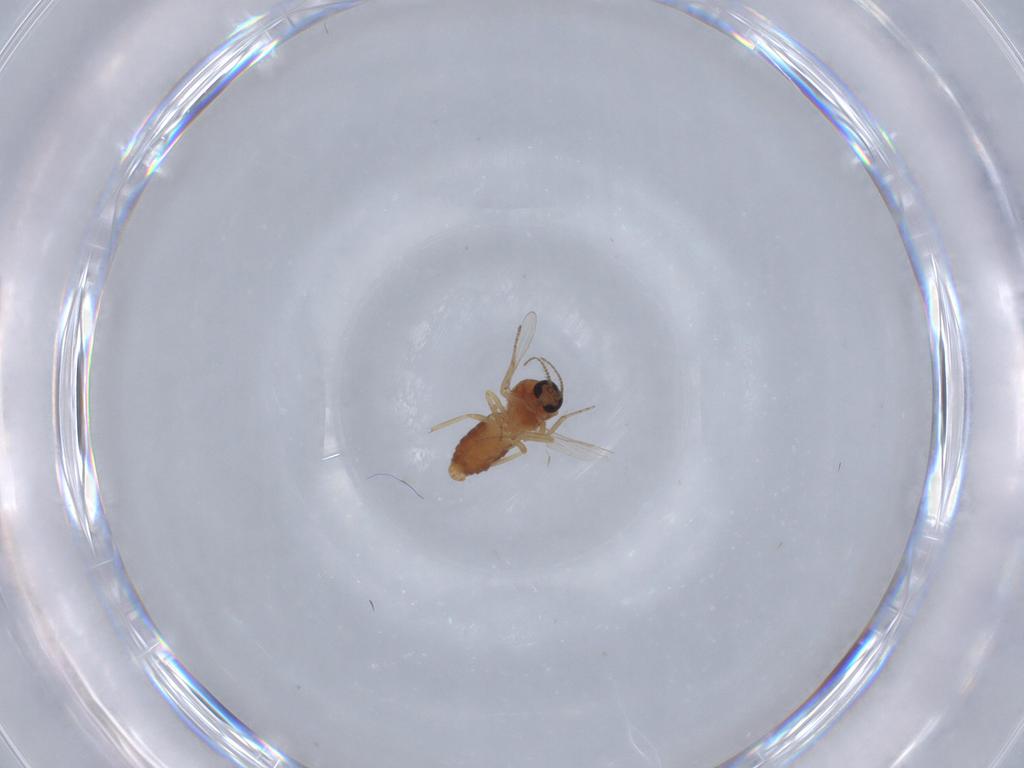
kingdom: Animalia
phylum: Arthropoda
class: Insecta
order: Diptera
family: Ceratopogonidae
